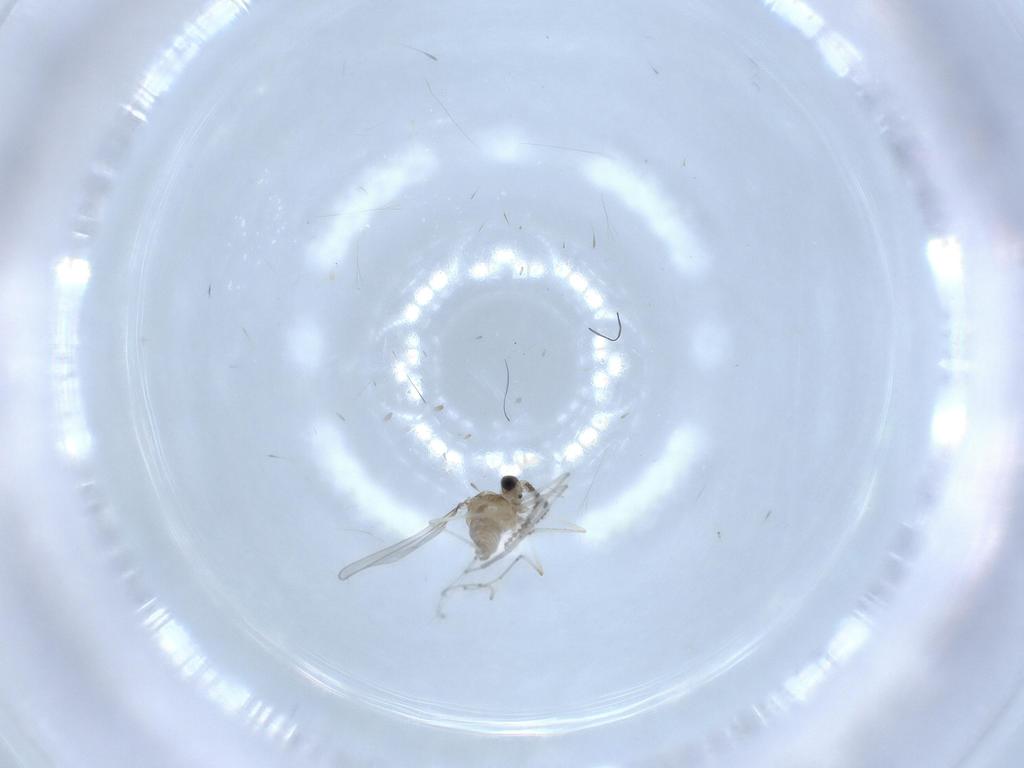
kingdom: Animalia
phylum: Arthropoda
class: Insecta
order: Diptera
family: Cecidomyiidae
